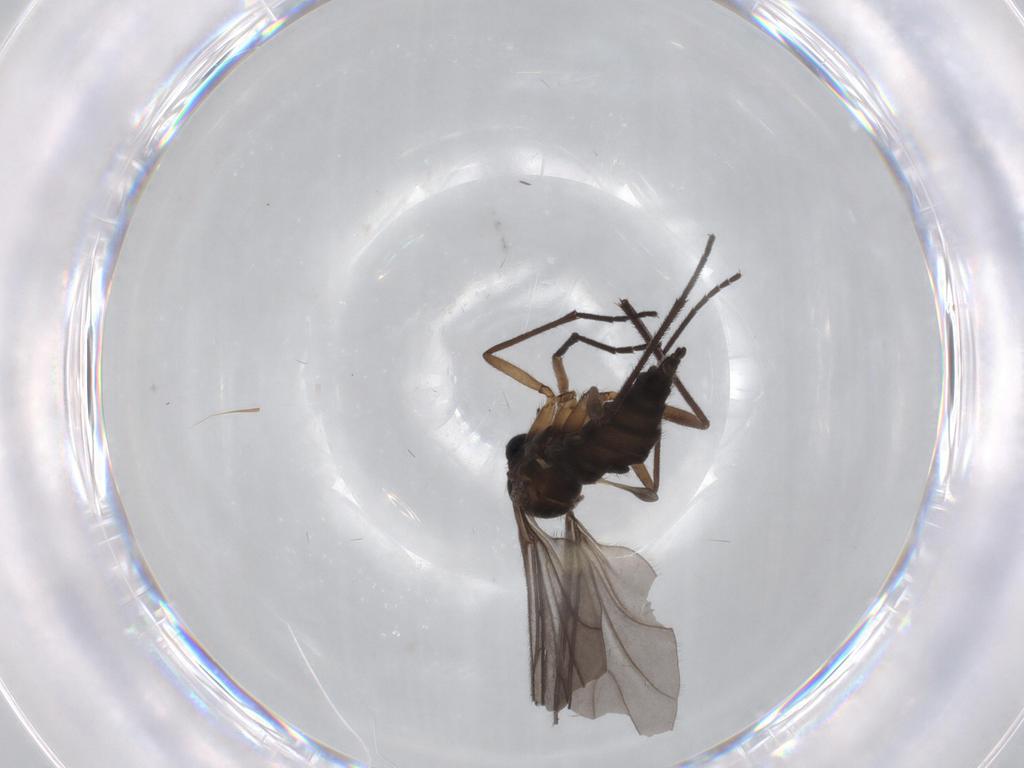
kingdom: Animalia
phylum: Arthropoda
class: Insecta
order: Diptera
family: Sciaridae
